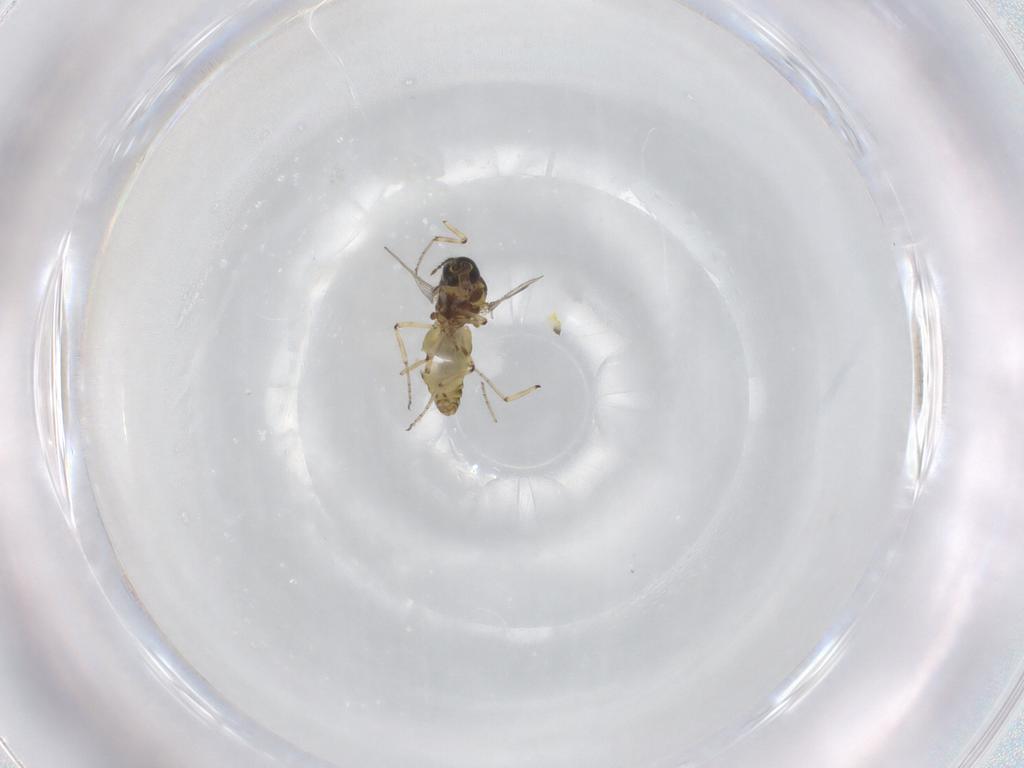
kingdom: Animalia
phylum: Arthropoda
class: Insecta
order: Diptera
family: Ceratopogonidae
